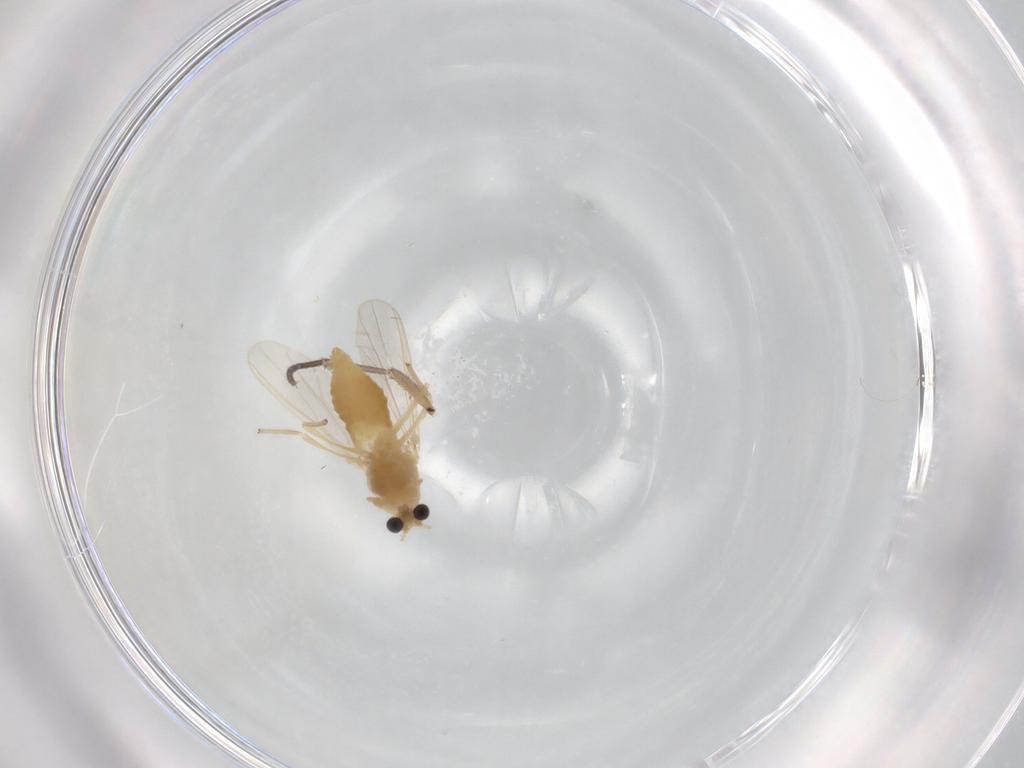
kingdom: Animalia
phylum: Arthropoda
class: Insecta
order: Diptera
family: Chironomidae
